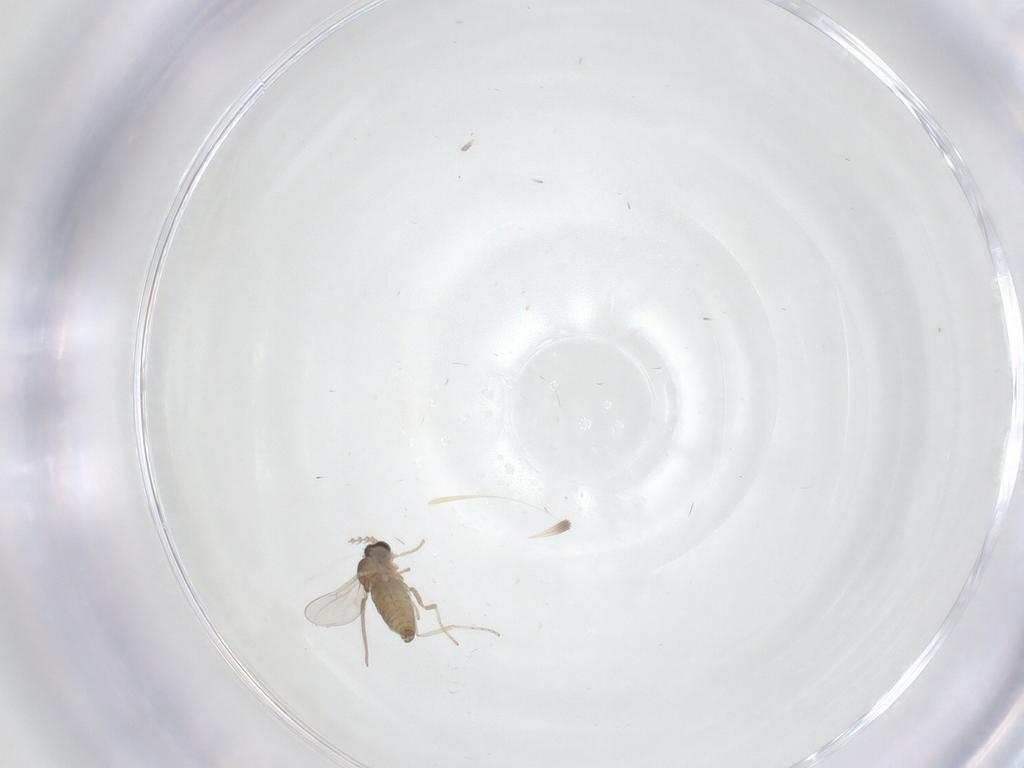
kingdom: Animalia
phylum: Arthropoda
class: Insecta
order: Diptera
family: Cecidomyiidae
